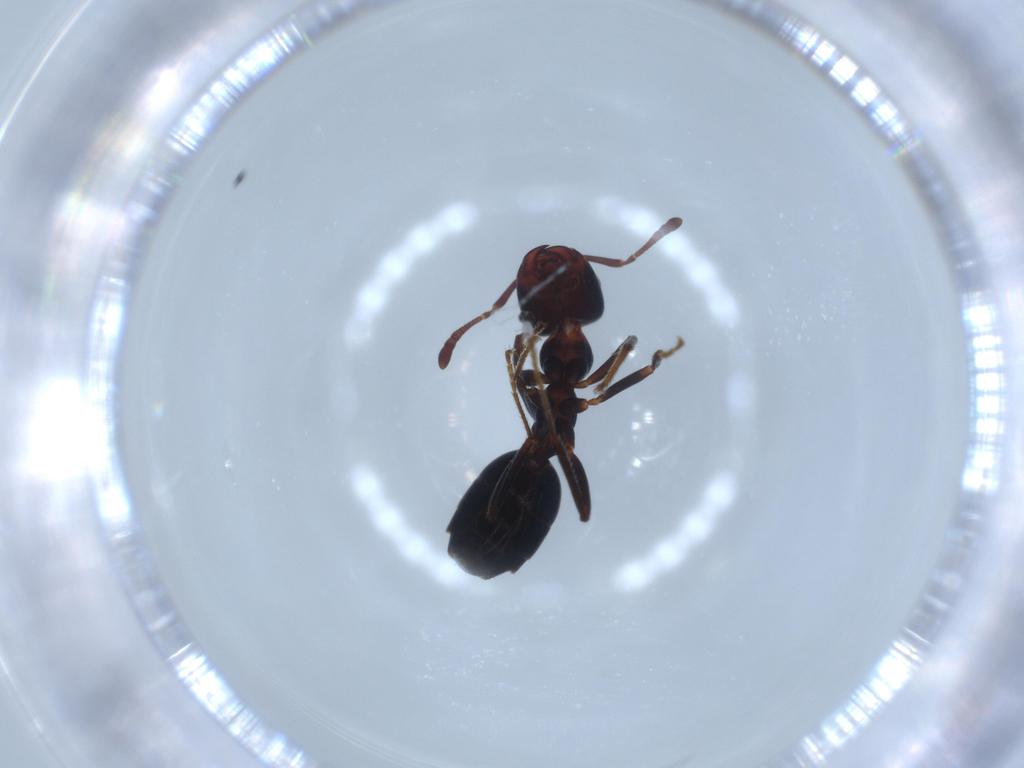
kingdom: Animalia
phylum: Arthropoda
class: Insecta
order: Hymenoptera
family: Formicidae
